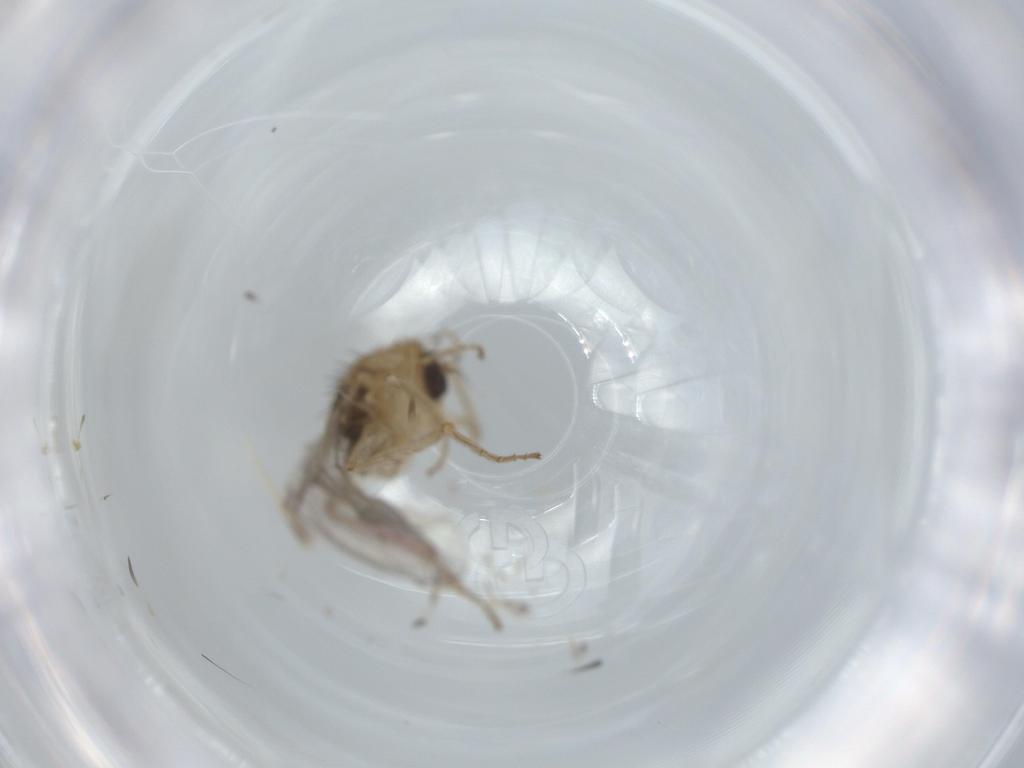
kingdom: Animalia
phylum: Arthropoda
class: Insecta
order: Diptera
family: Hybotidae
